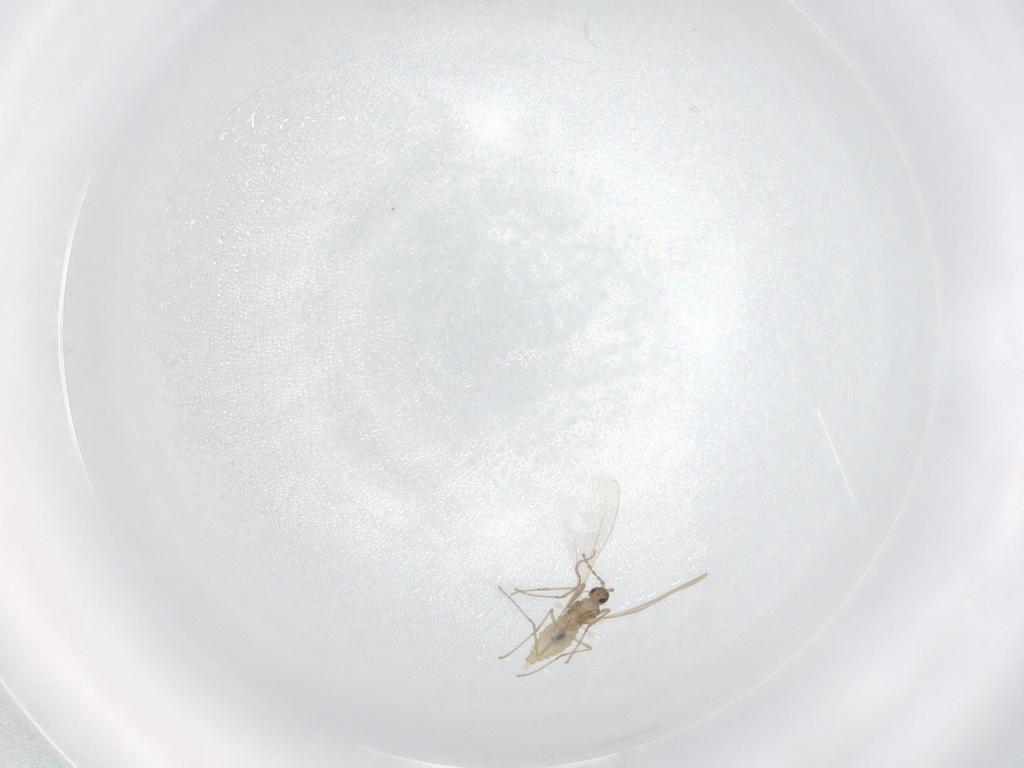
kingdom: Animalia
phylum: Arthropoda
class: Insecta
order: Diptera
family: Cecidomyiidae
